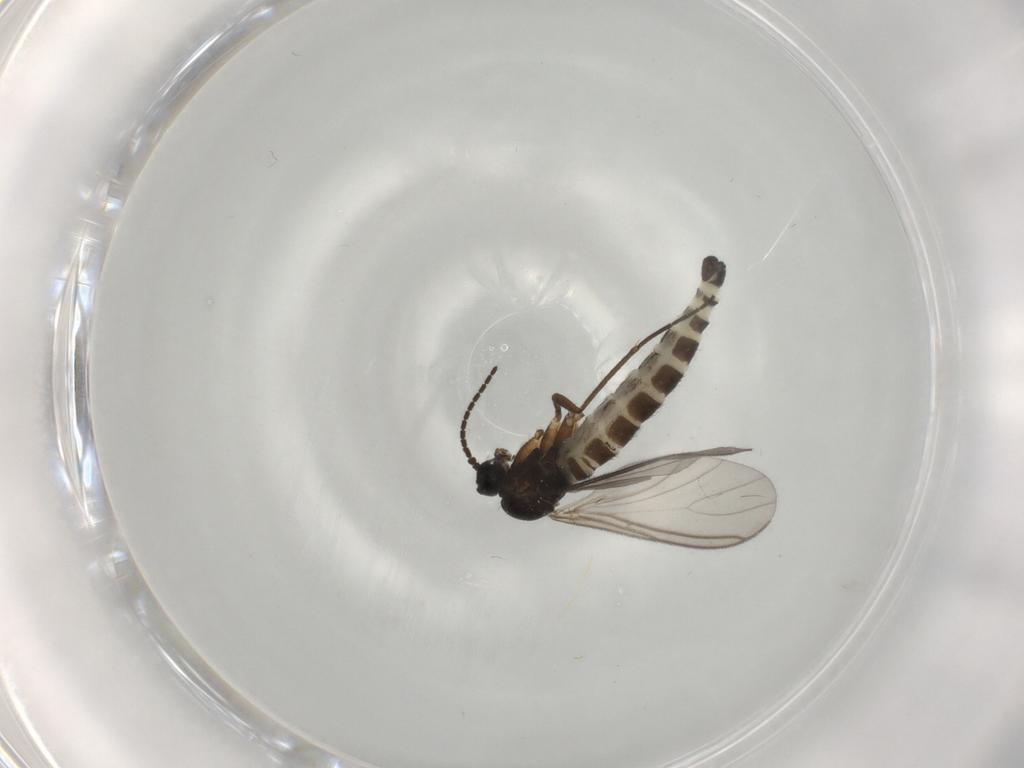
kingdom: Animalia
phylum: Arthropoda
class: Insecta
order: Diptera
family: Sciaridae
